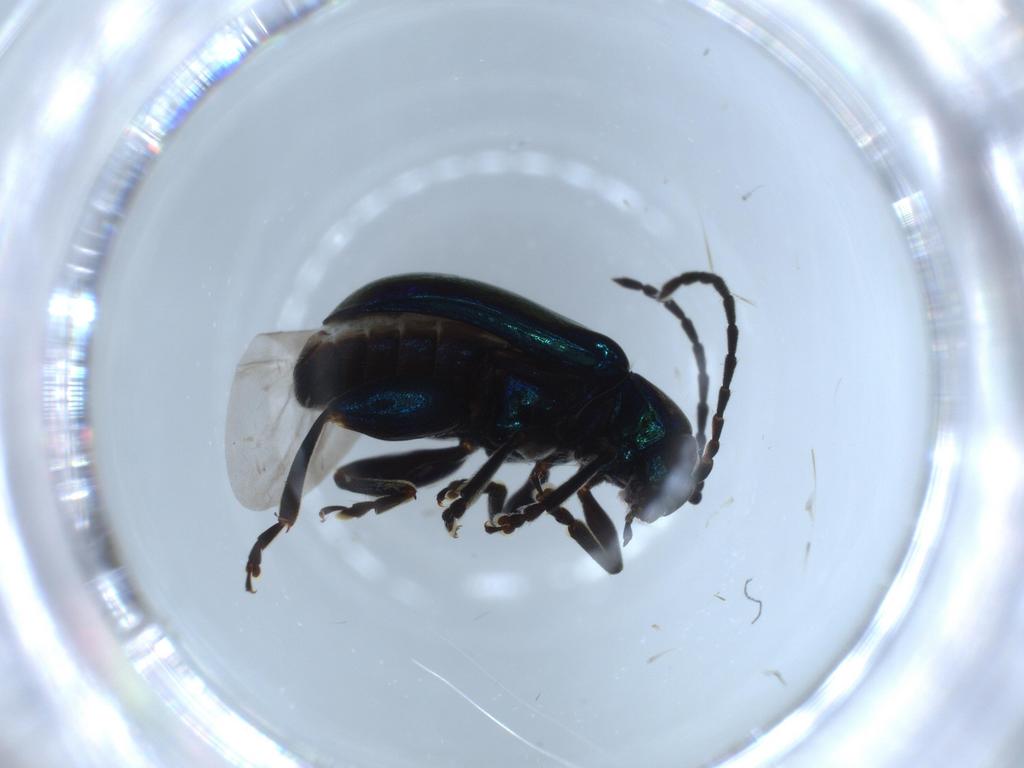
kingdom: Animalia
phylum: Arthropoda
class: Insecta
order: Coleoptera
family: Chrysomelidae
